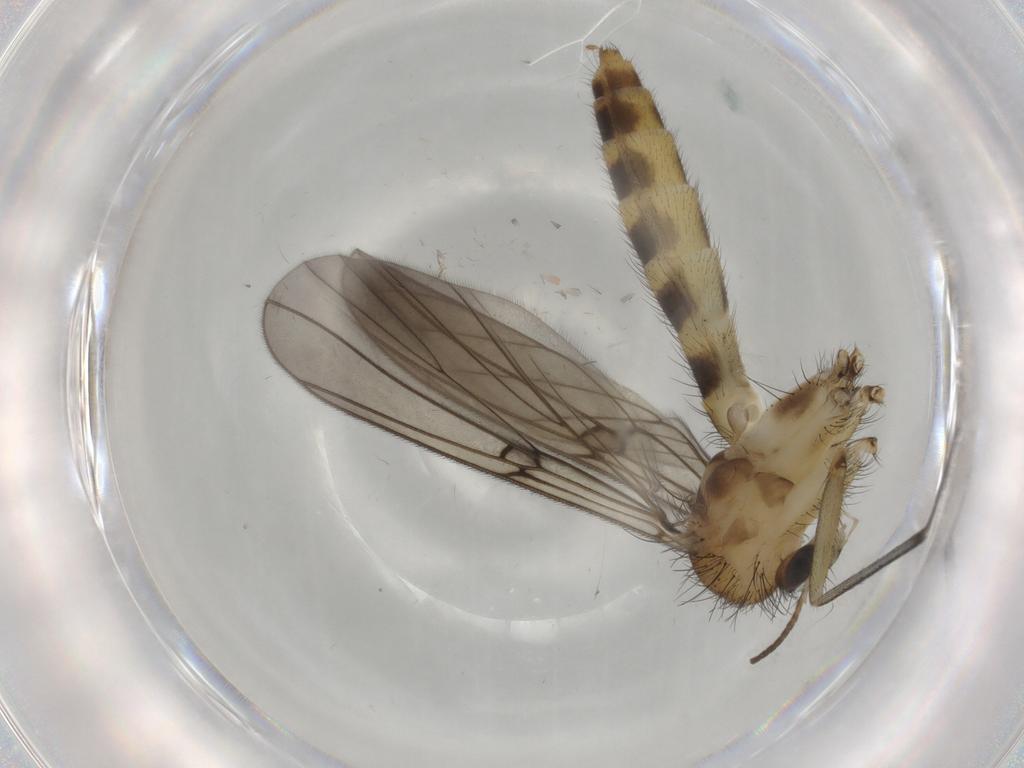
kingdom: Animalia
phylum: Arthropoda
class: Insecta
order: Diptera
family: Mycetophilidae
